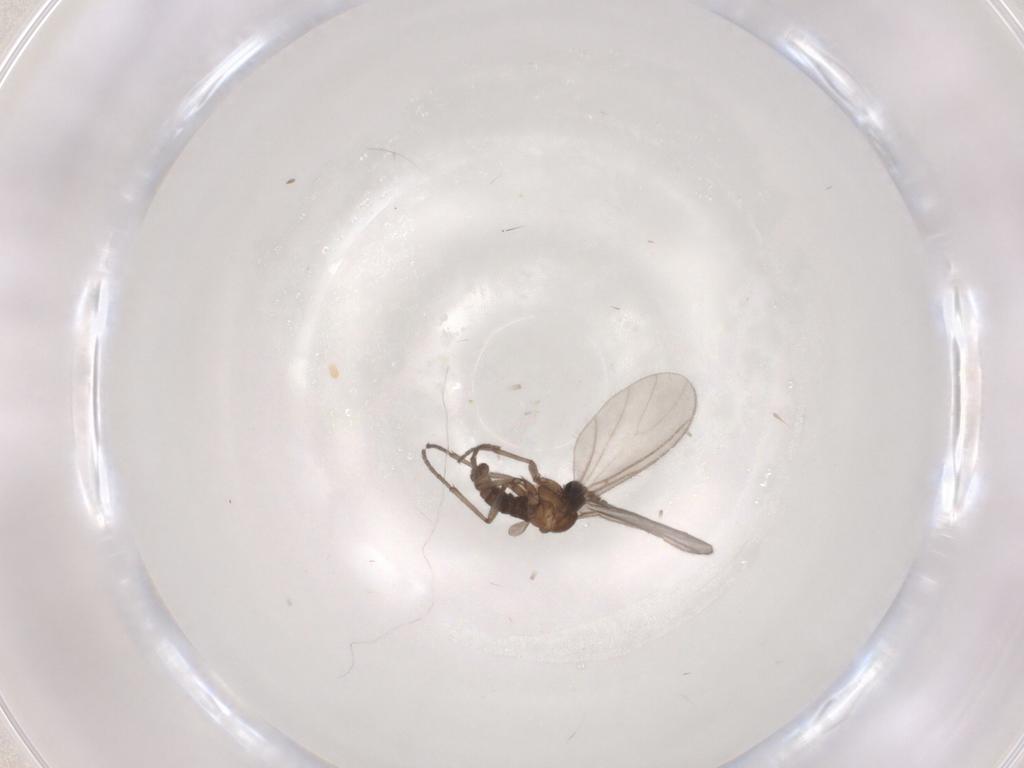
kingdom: Animalia
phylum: Arthropoda
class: Insecta
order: Diptera
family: Sciaridae
